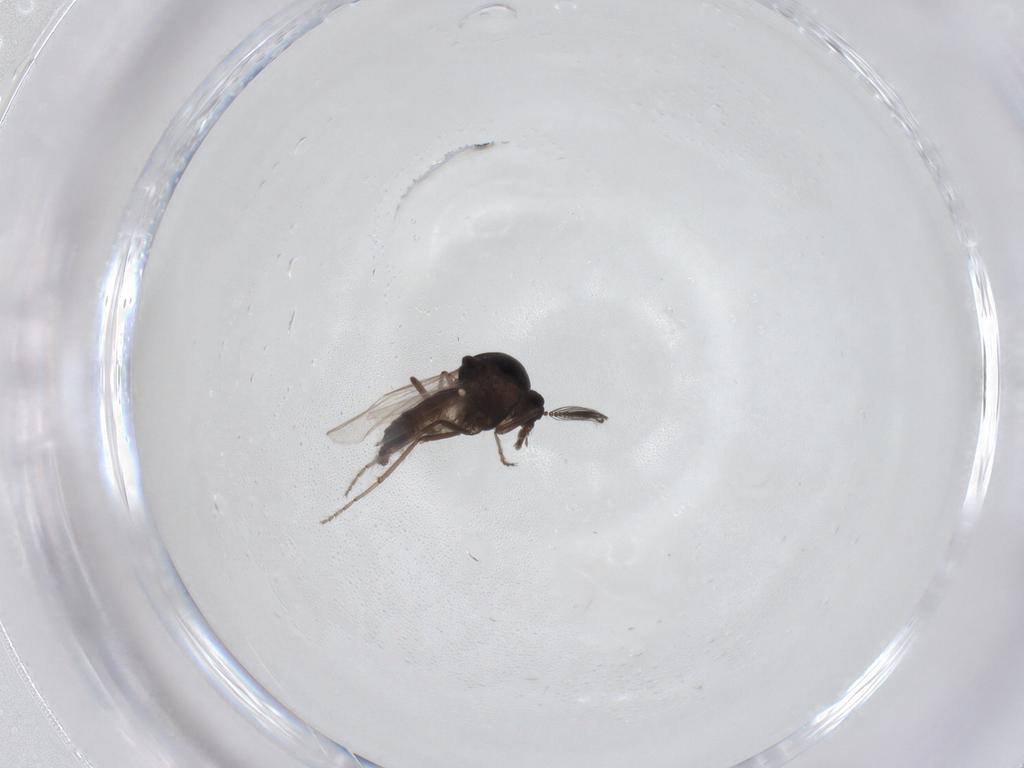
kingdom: Animalia
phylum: Arthropoda
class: Insecta
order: Diptera
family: Ceratopogonidae
